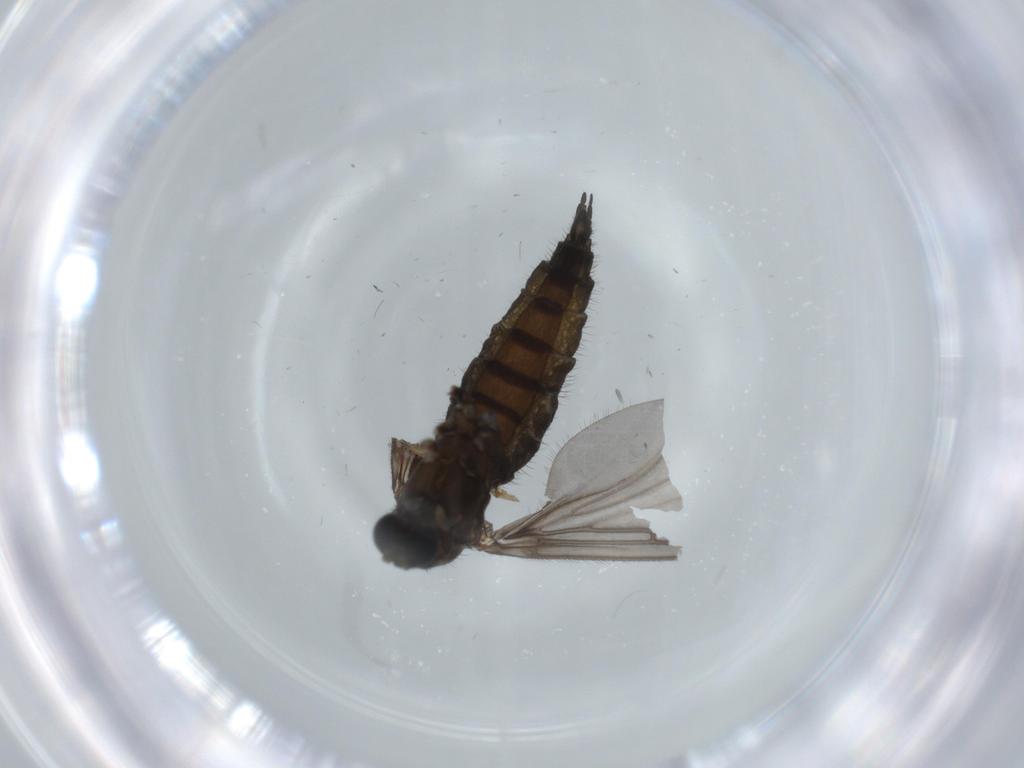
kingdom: Animalia
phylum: Arthropoda
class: Insecta
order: Diptera
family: Sciaridae
